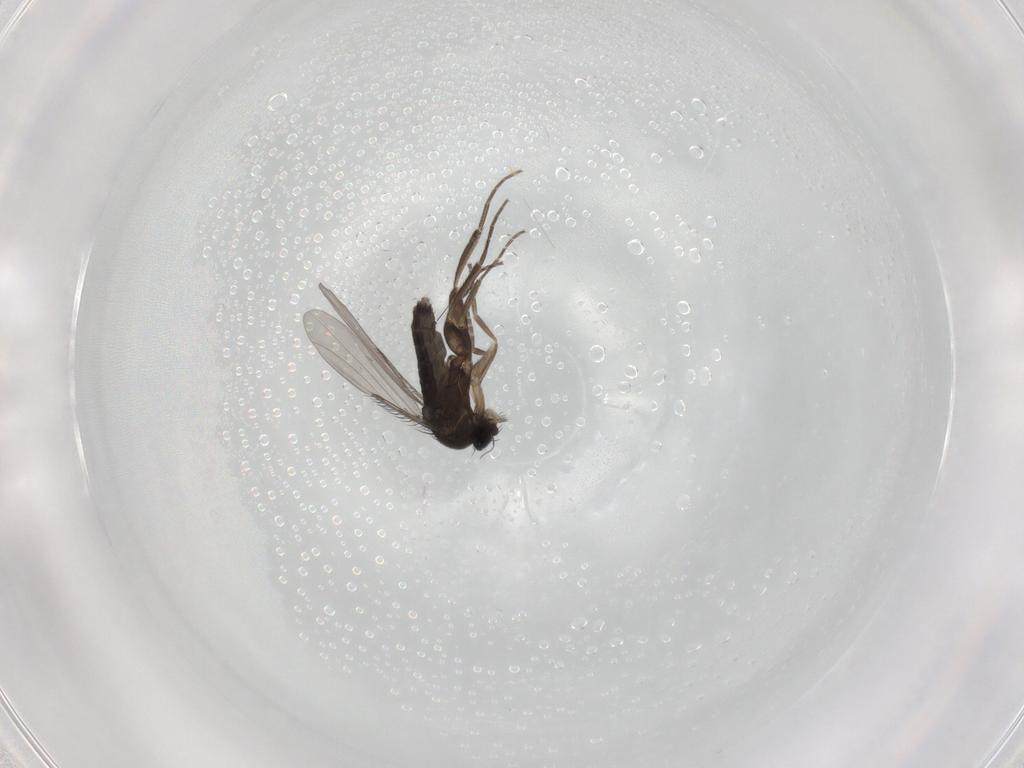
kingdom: Animalia
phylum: Arthropoda
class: Insecta
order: Diptera
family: Phoridae
